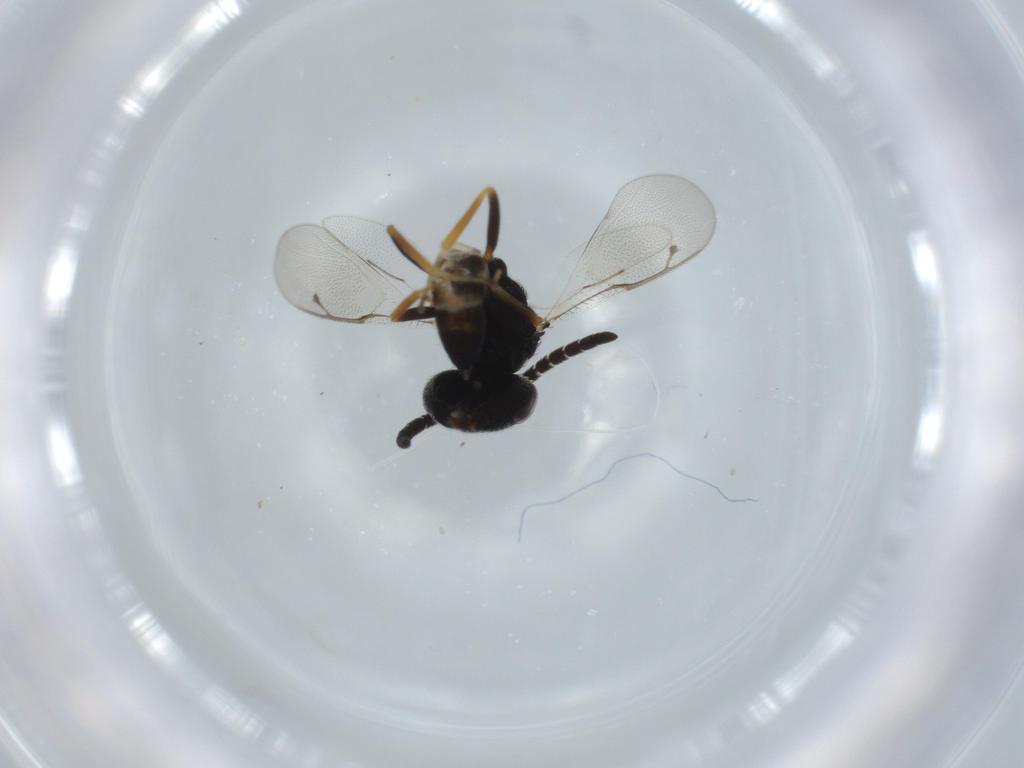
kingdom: Animalia
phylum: Arthropoda
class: Insecta
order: Hymenoptera
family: Agaonidae
